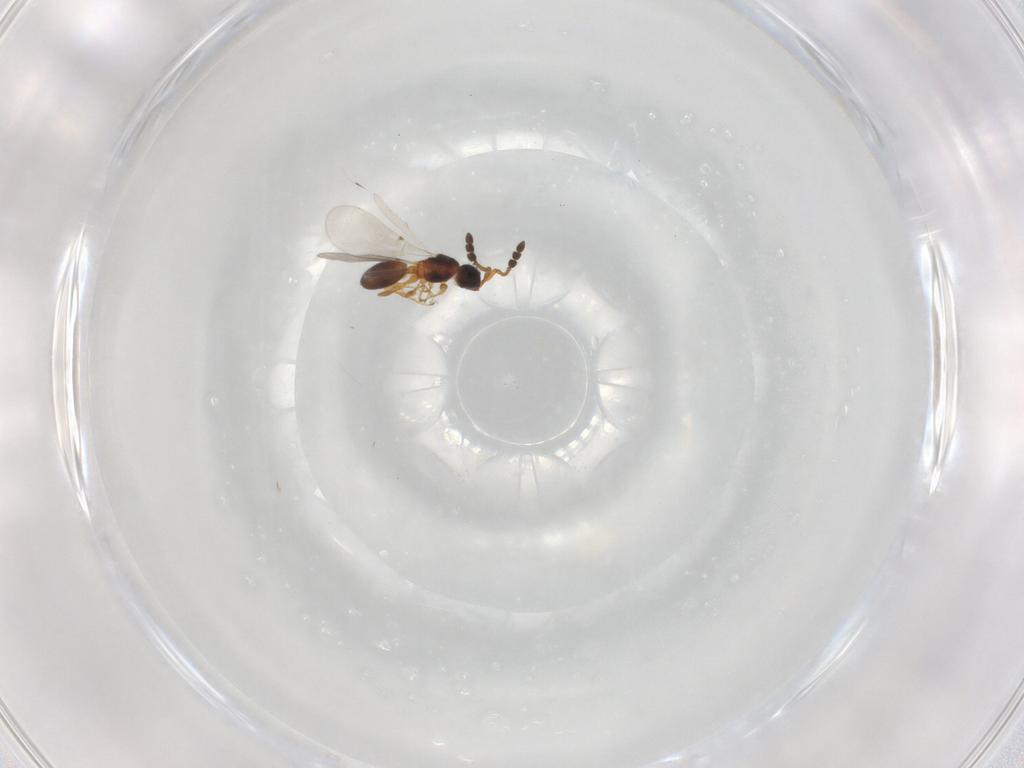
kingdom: Animalia
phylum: Arthropoda
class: Insecta
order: Hymenoptera
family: Diapriidae
